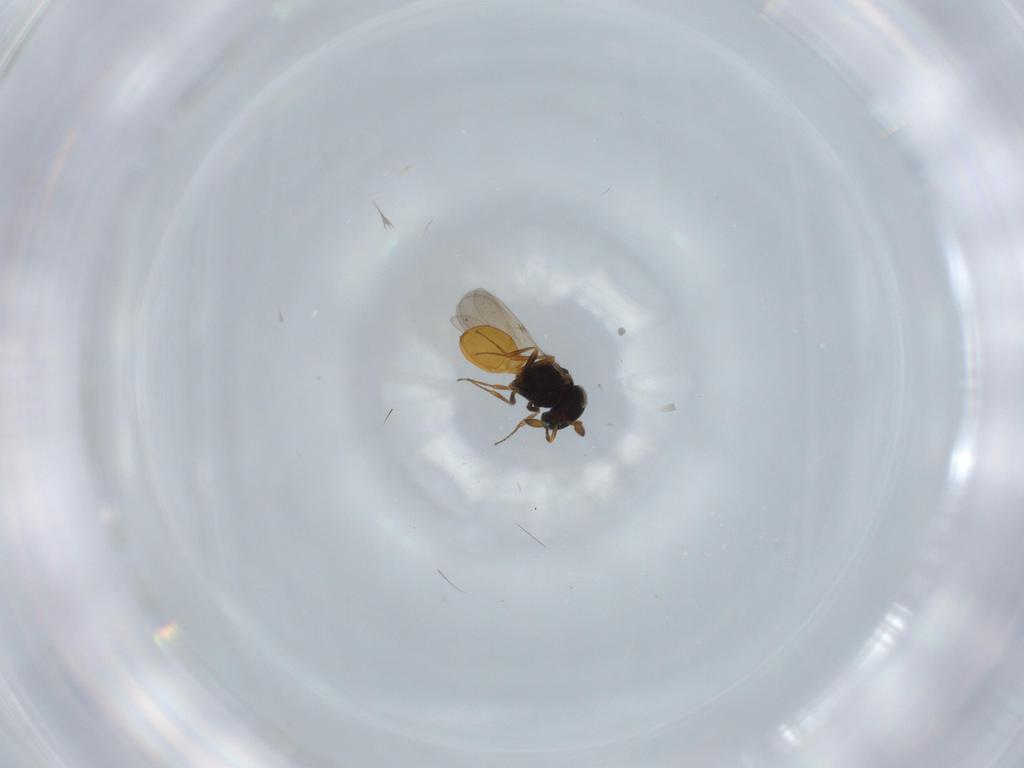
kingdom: Animalia
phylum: Arthropoda
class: Insecta
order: Hymenoptera
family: Scelionidae
